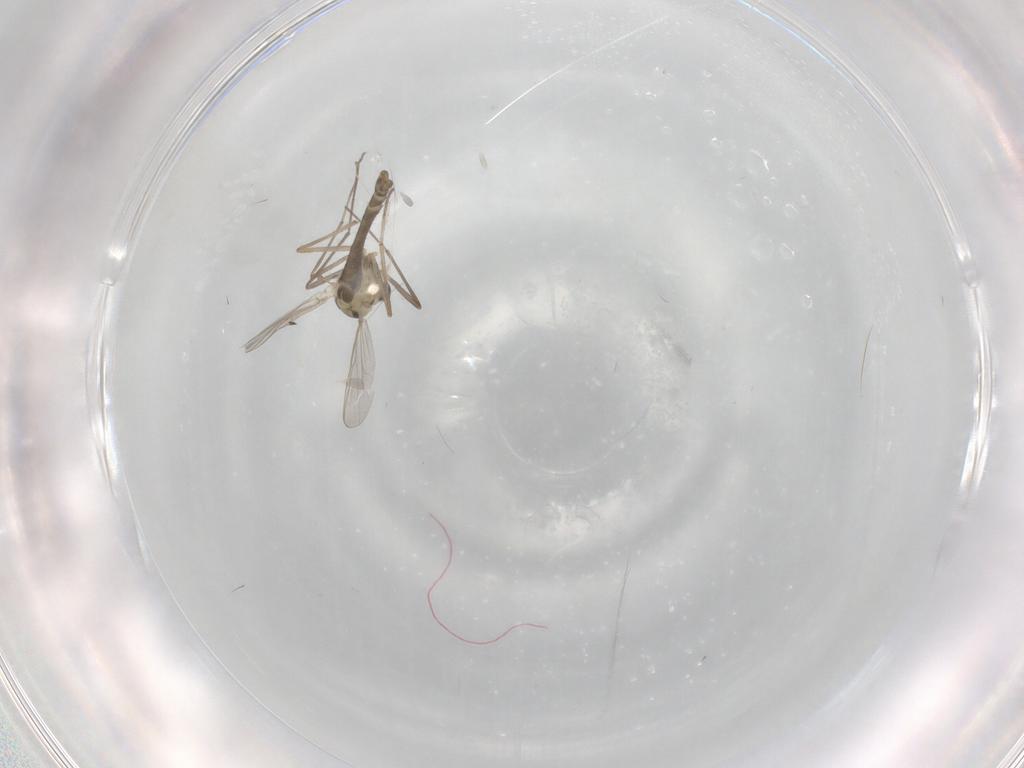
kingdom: Animalia
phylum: Arthropoda
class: Insecta
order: Diptera
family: Chironomidae
